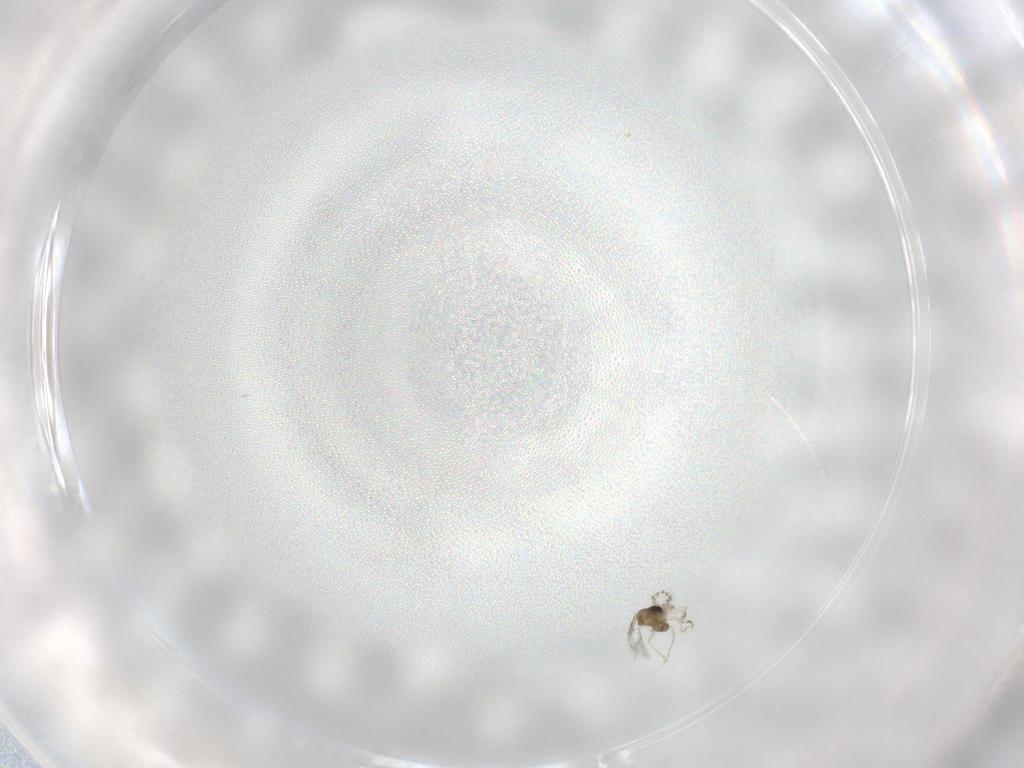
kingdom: Animalia
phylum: Arthropoda
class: Insecta
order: Diptera
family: Cecidomyiidae
